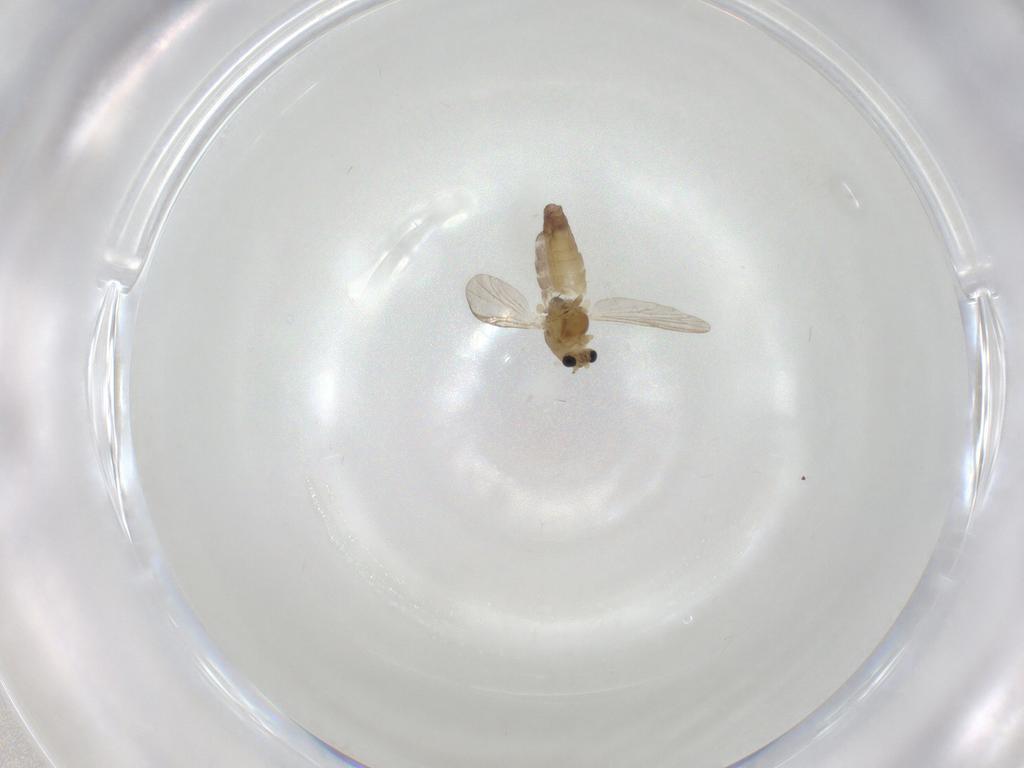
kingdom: Animalia
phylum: Arthropoda
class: Insecta
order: Diptera
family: Chironomidae
